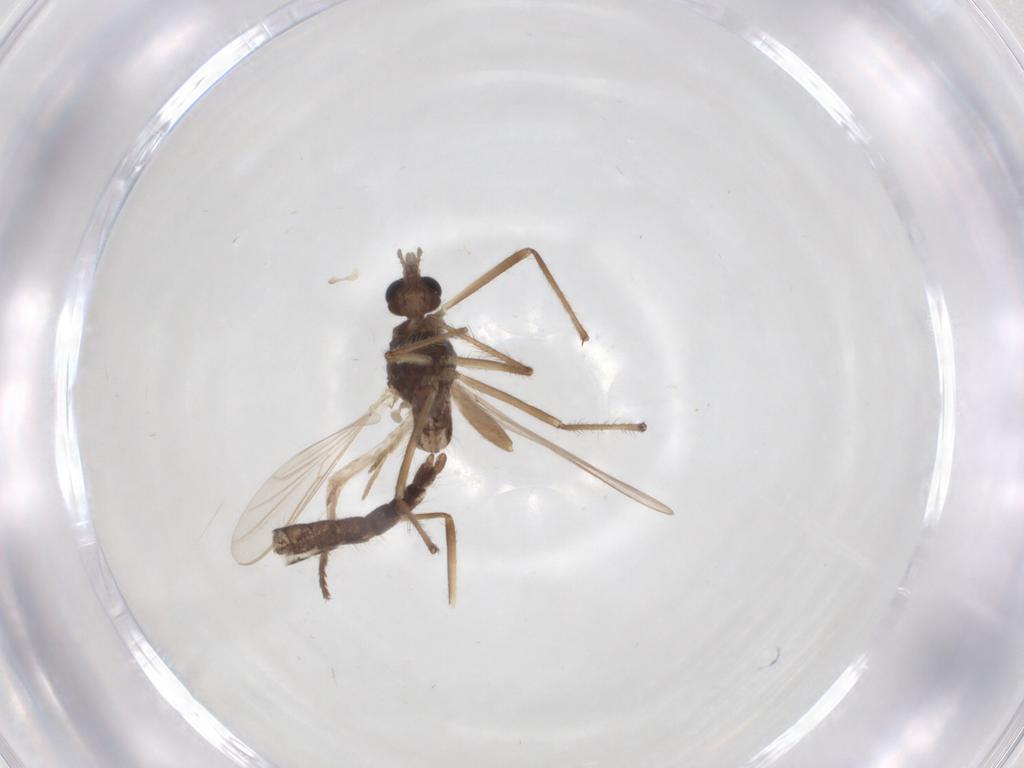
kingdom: Animalia
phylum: Arthropoda
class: Insecta
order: Diptera
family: Chironomidae
